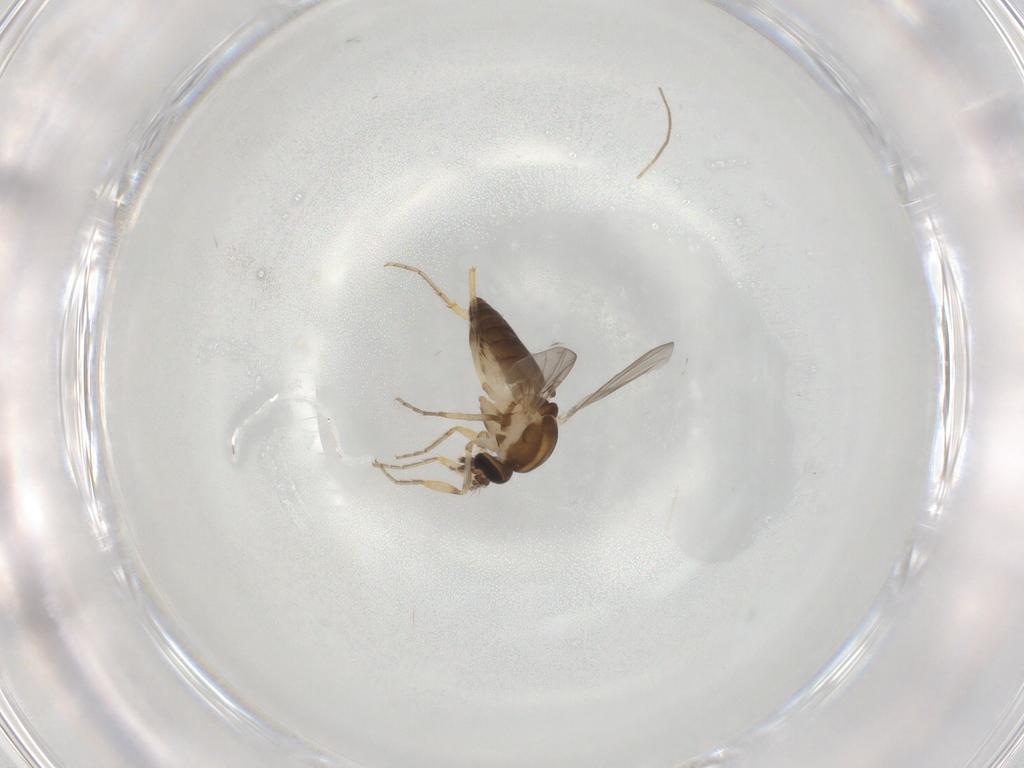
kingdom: Animalia
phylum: Arthropoda
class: Insecta
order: Diptera
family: Ceratopogonidae
